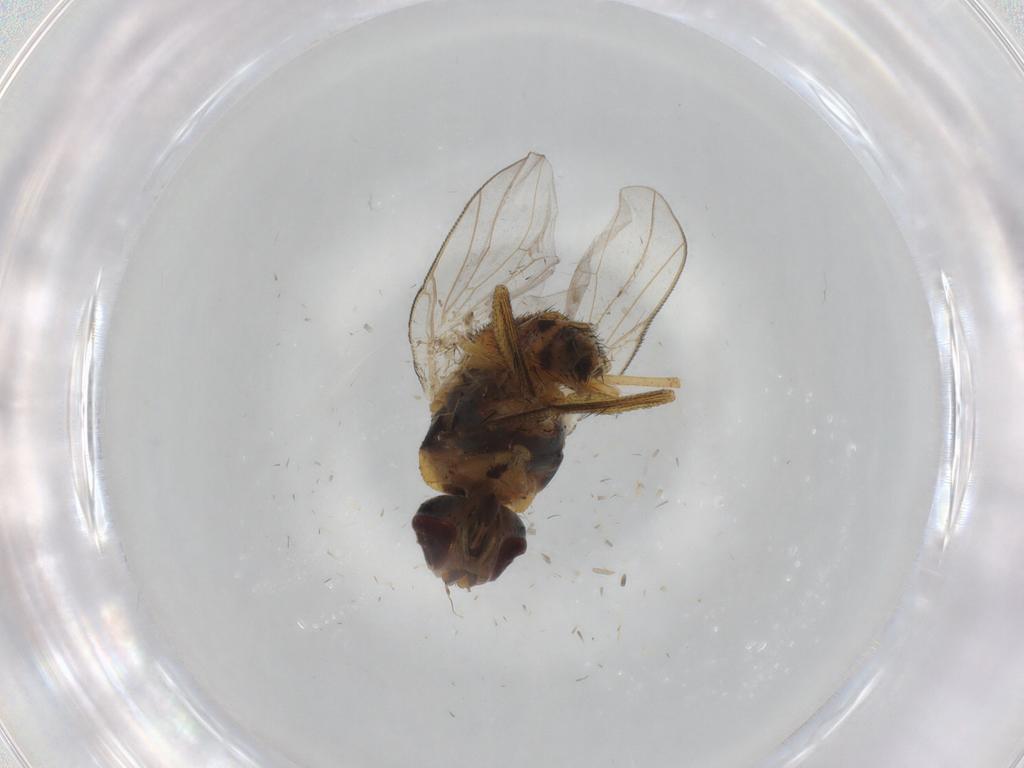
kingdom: Animalia
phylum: Arthropoda
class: Insecta
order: Diptera
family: Muscidae
